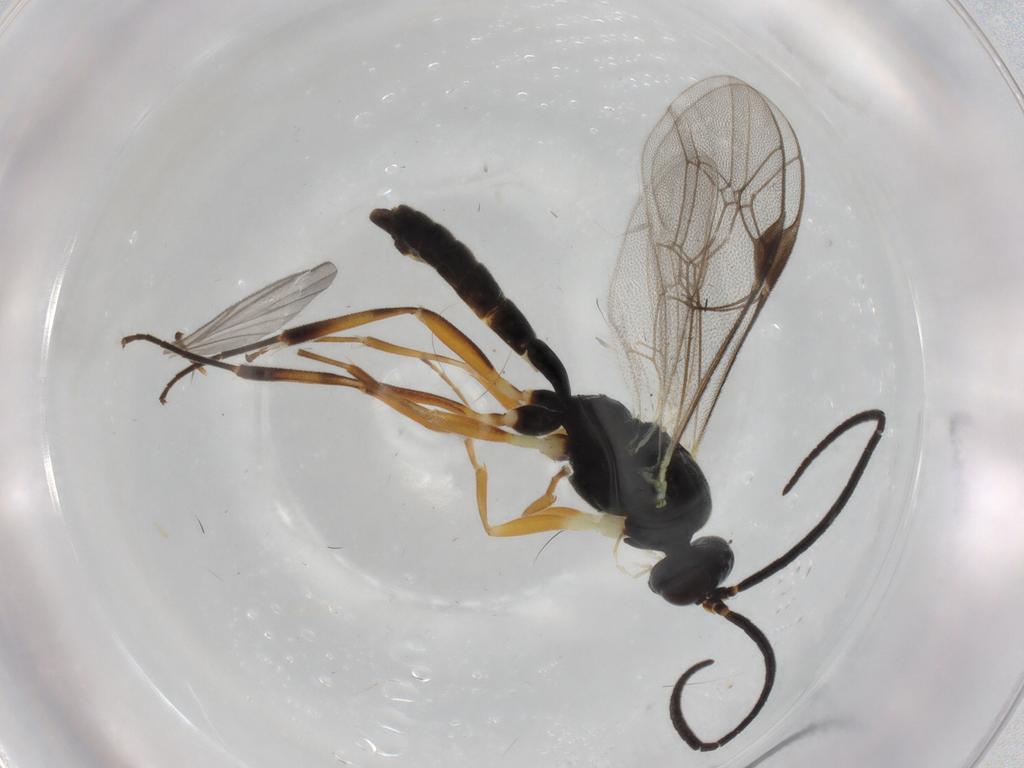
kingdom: Animalia
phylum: Arthropoda
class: Insecta
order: Hymenoptera
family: Ichneumonidae
